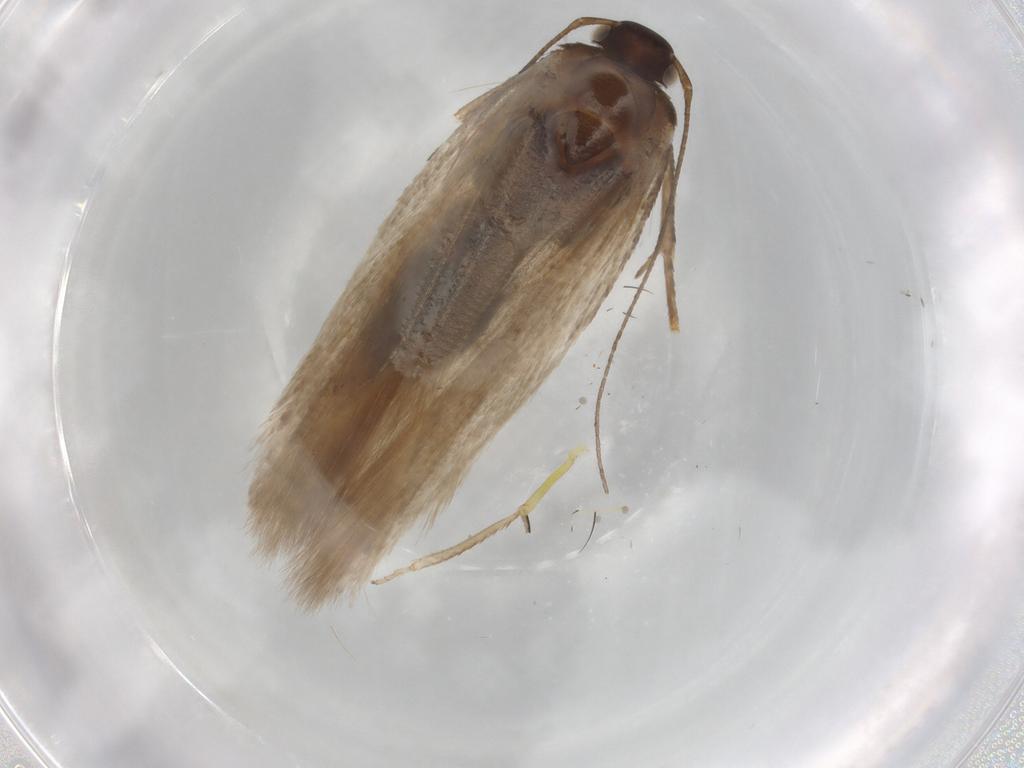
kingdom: Animalia
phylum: Arthropoda
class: Insecta
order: Lepidoptera
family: Gelechiidae
